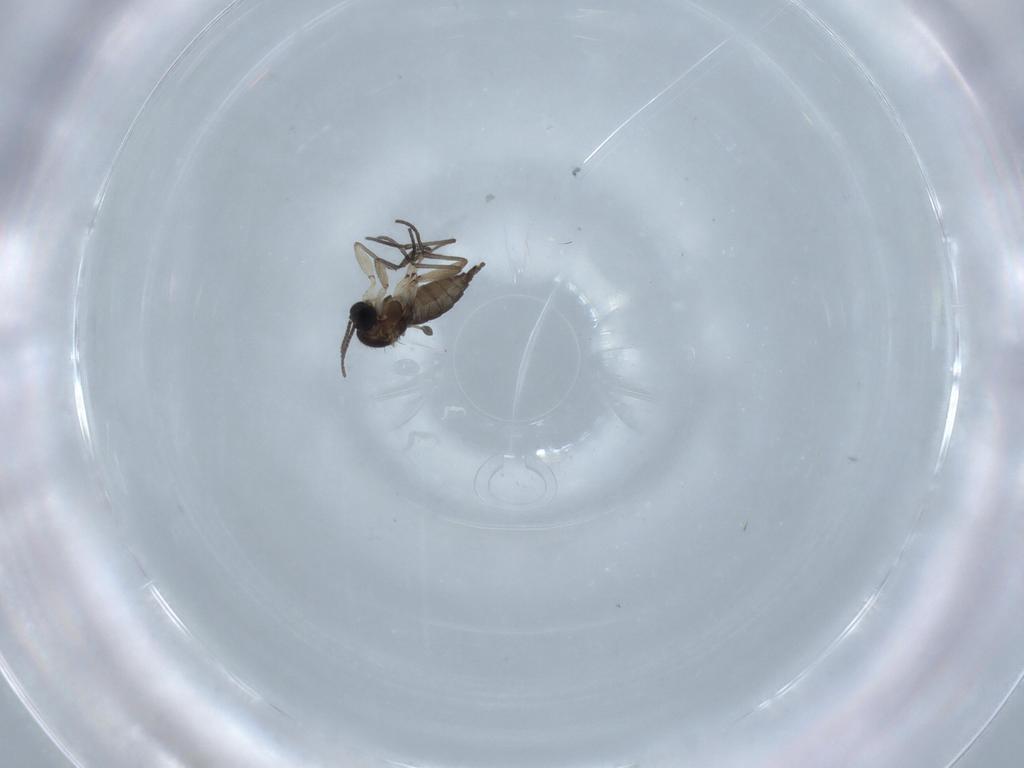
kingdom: Animalia
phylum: Arthropoda
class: Insecta
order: Diptera
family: Sciaridae
